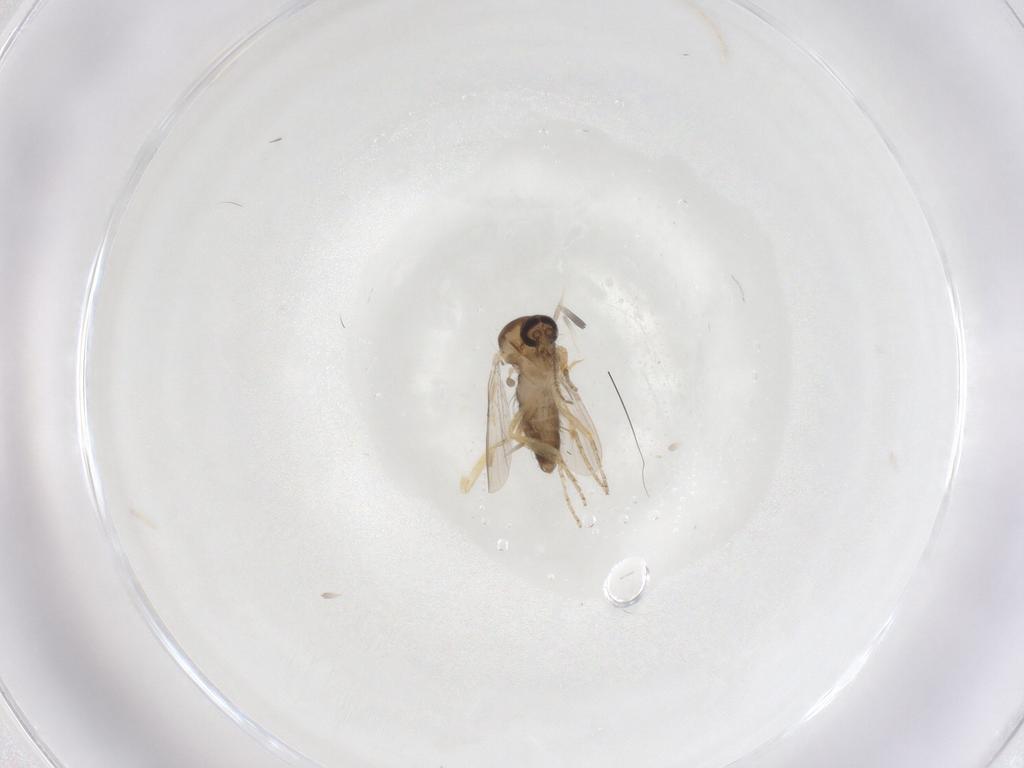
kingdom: Animalia
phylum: Arthropoda
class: Insecta
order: Diptera
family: Ceratopogonidae
